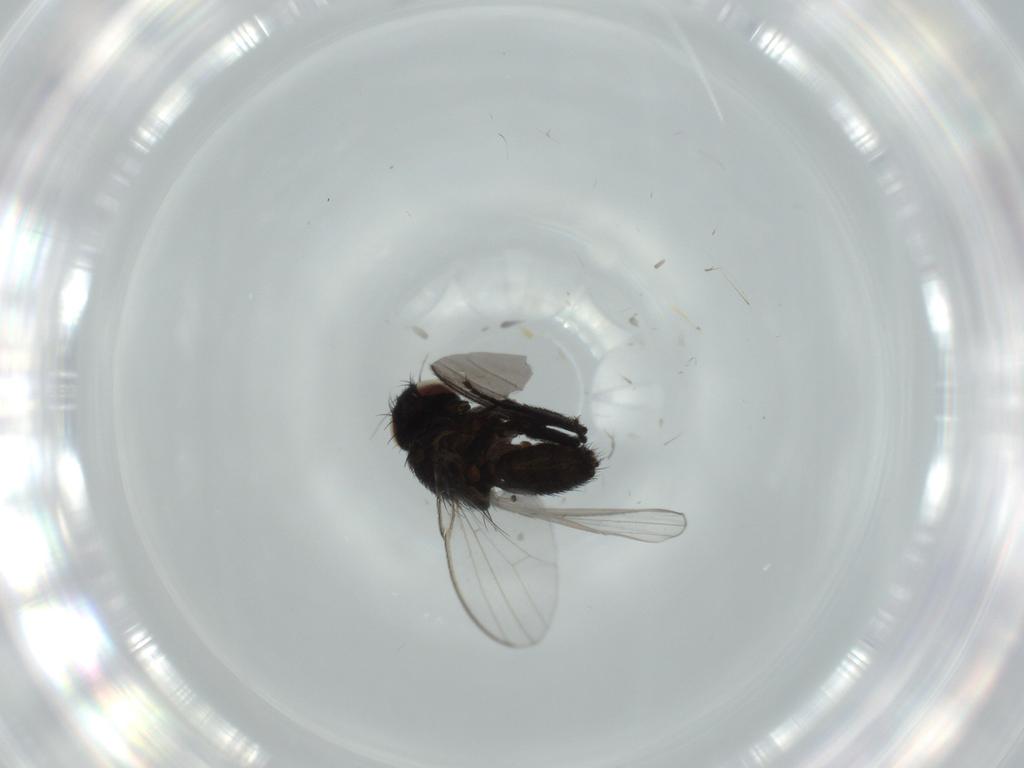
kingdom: Animalia
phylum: Arthropoda
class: Insecta
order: Diptera
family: Milichiidae
